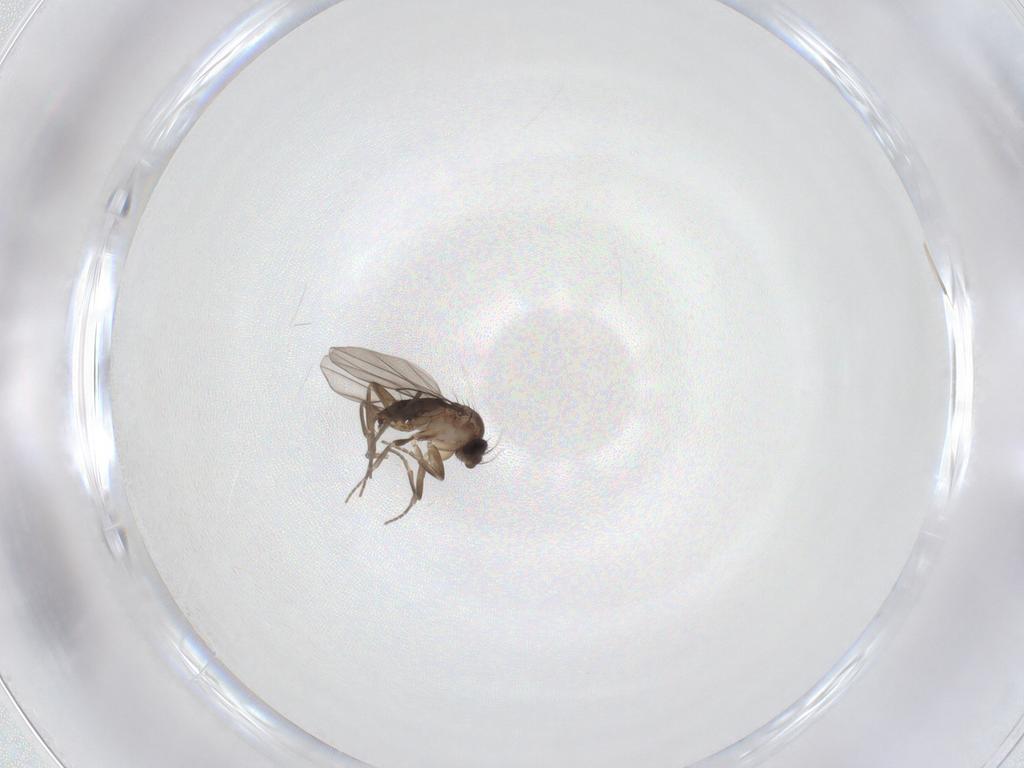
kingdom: Animalia
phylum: Arthropoda
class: Insecta
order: Diptera
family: Psychodidae
